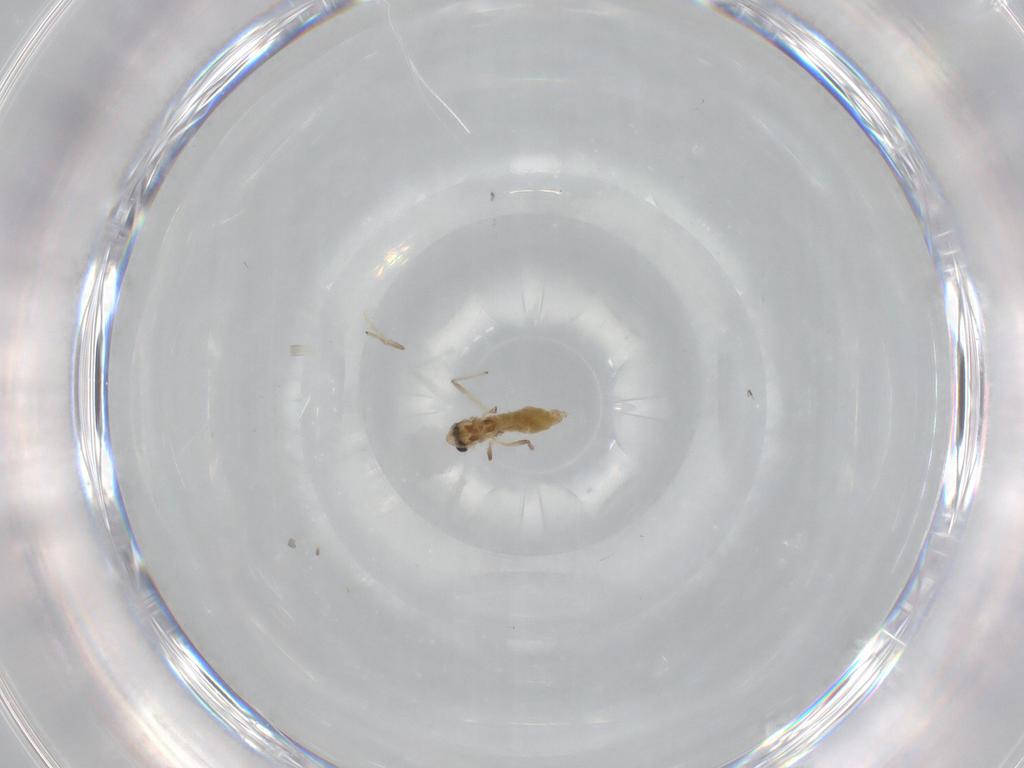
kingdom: Animalia
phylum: Arthropoda
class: Insecta
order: Diptera
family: Chironomidae
